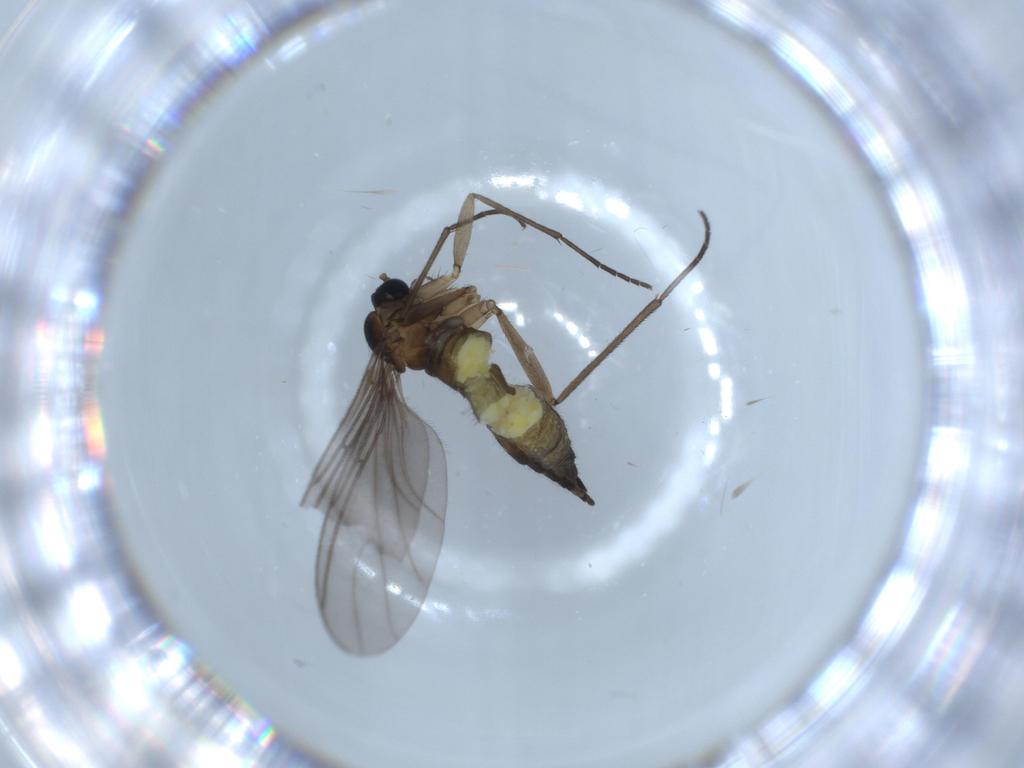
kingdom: Animalia
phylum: Arthropoda
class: Insecta
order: Diptera
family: Sciaridae
